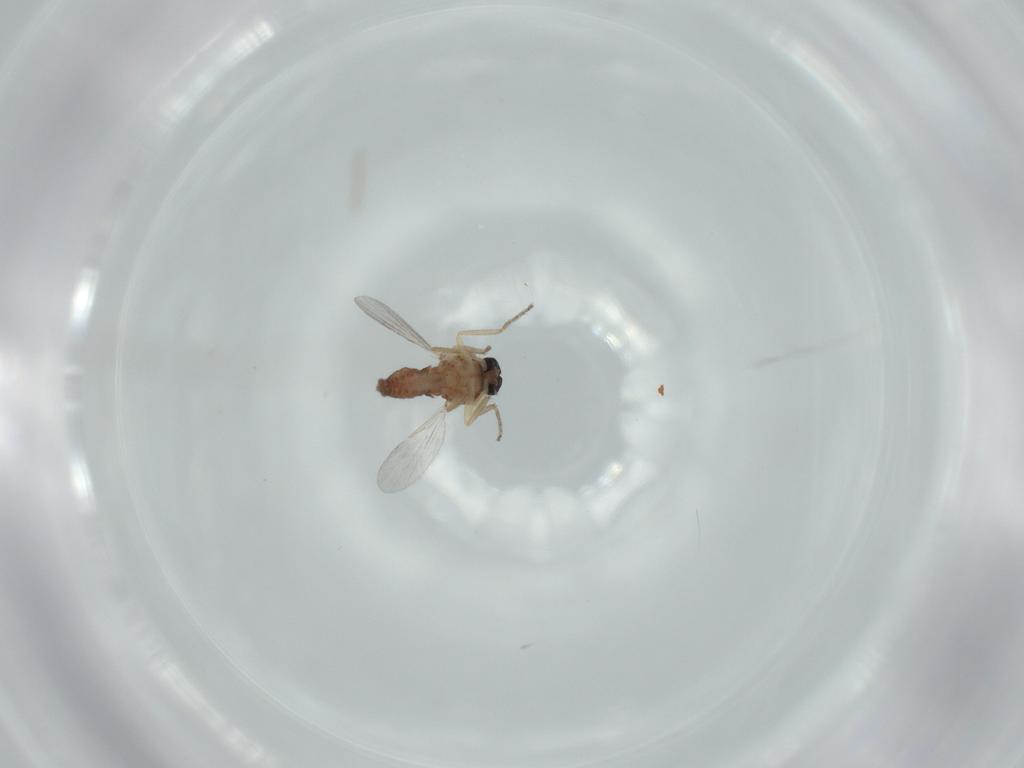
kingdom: Animalia
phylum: Arthropoda
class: Insecta
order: Diptera
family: Ceratopogonidae
